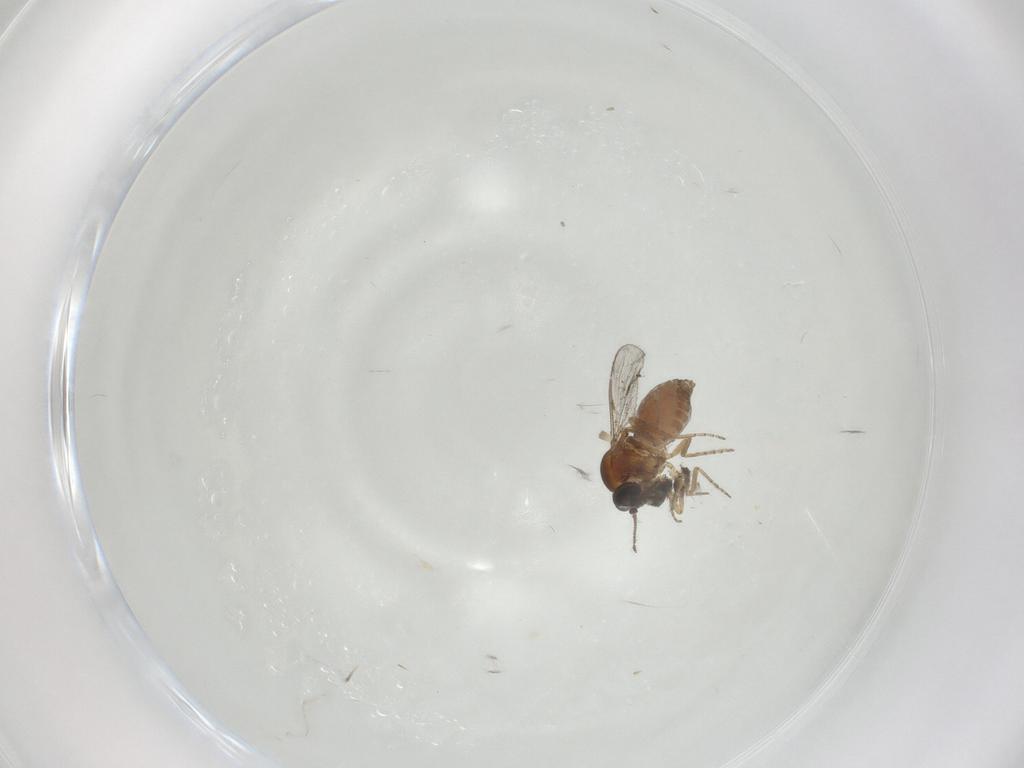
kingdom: Animalia
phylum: Arthropoda
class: Insecta
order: Diptera
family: Ceratopogonidae
